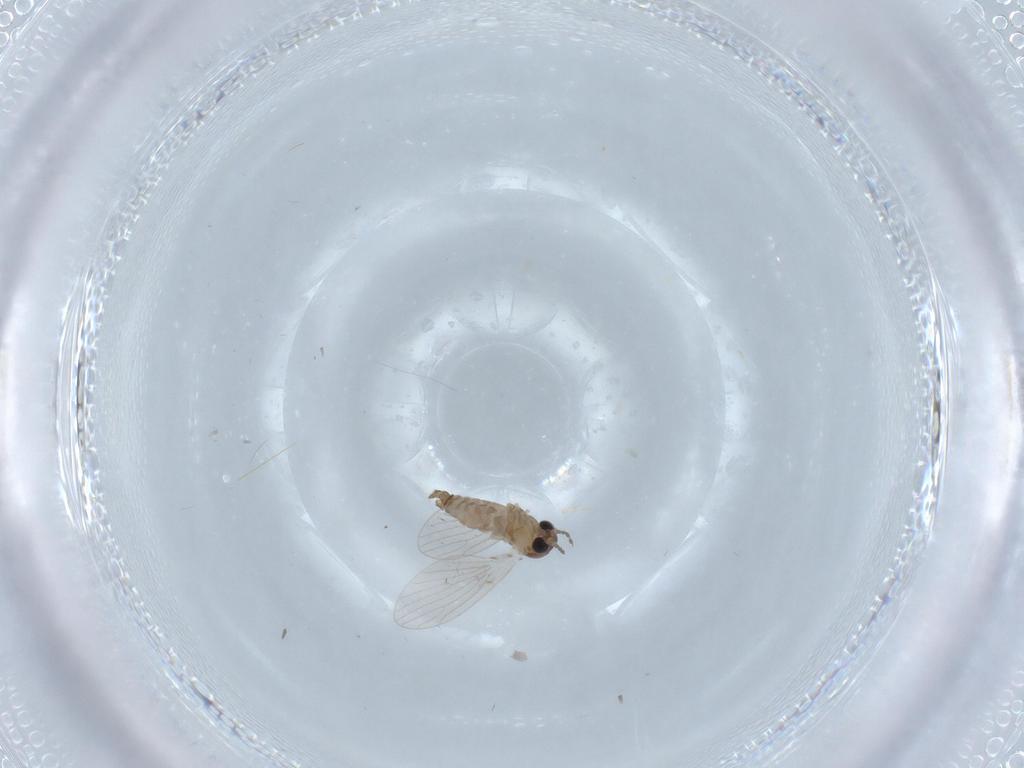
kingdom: Animalia
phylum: Arthropoda
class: Insecta
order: Diptera
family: Psychodidae
